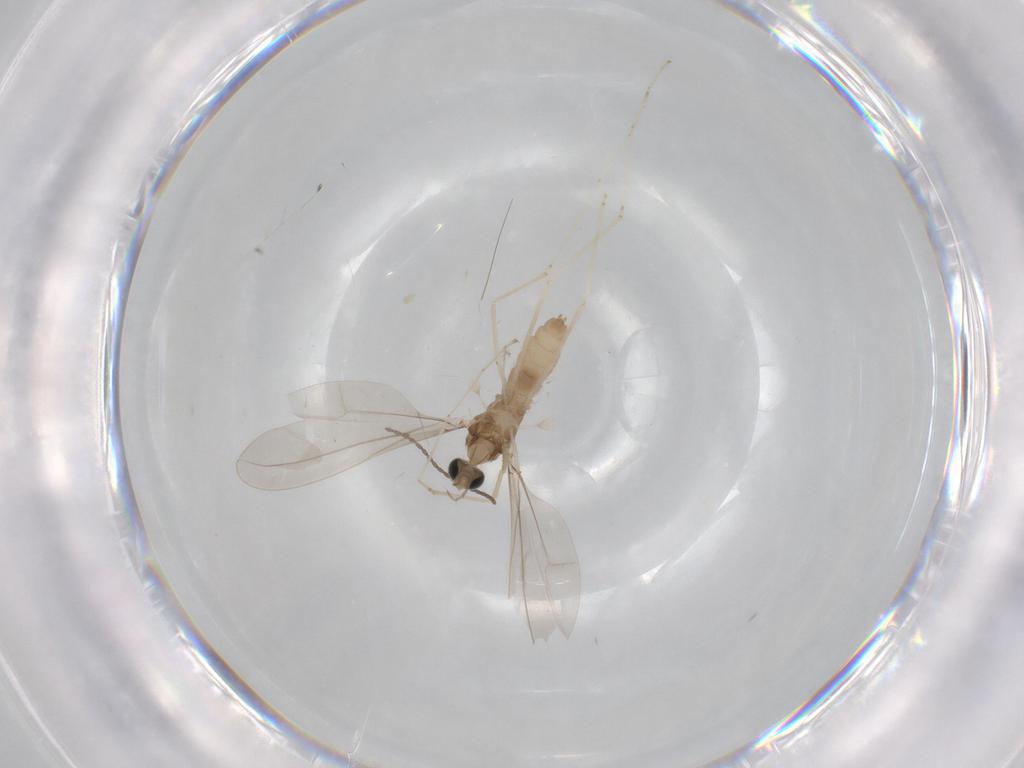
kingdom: Animalia
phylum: Arthropoda
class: Insecta
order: Diptera
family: Cecidomyiidae
